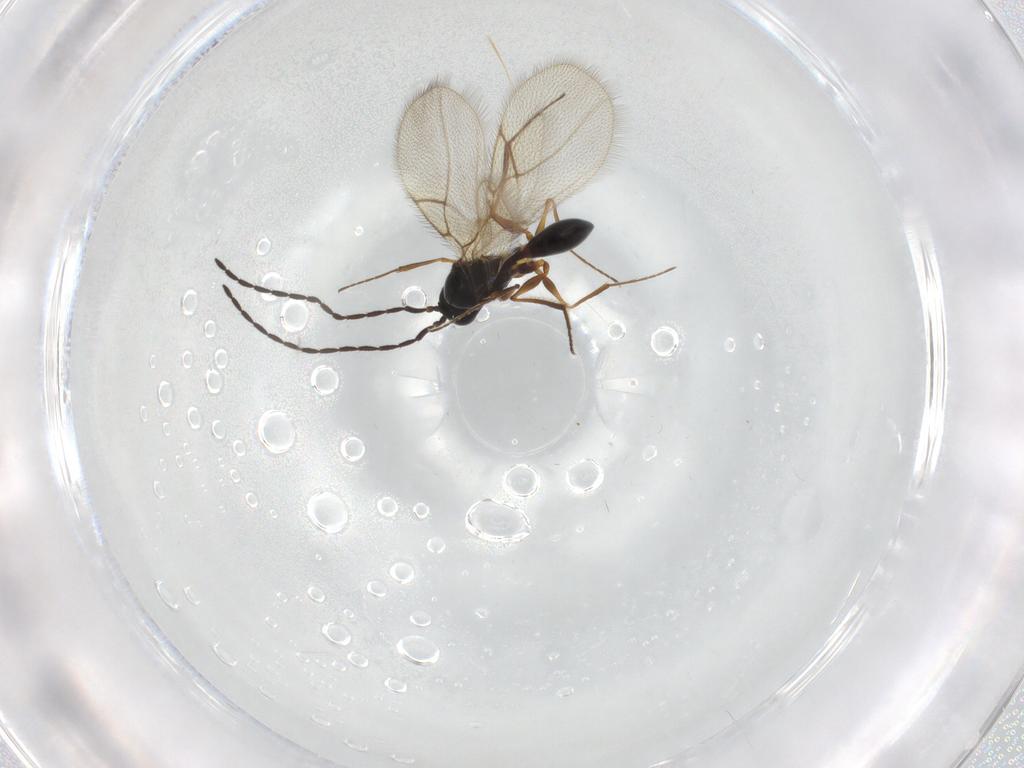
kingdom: Animalia
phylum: Arthropoda
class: Insecta
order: Hymenoptera
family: Figitidae
